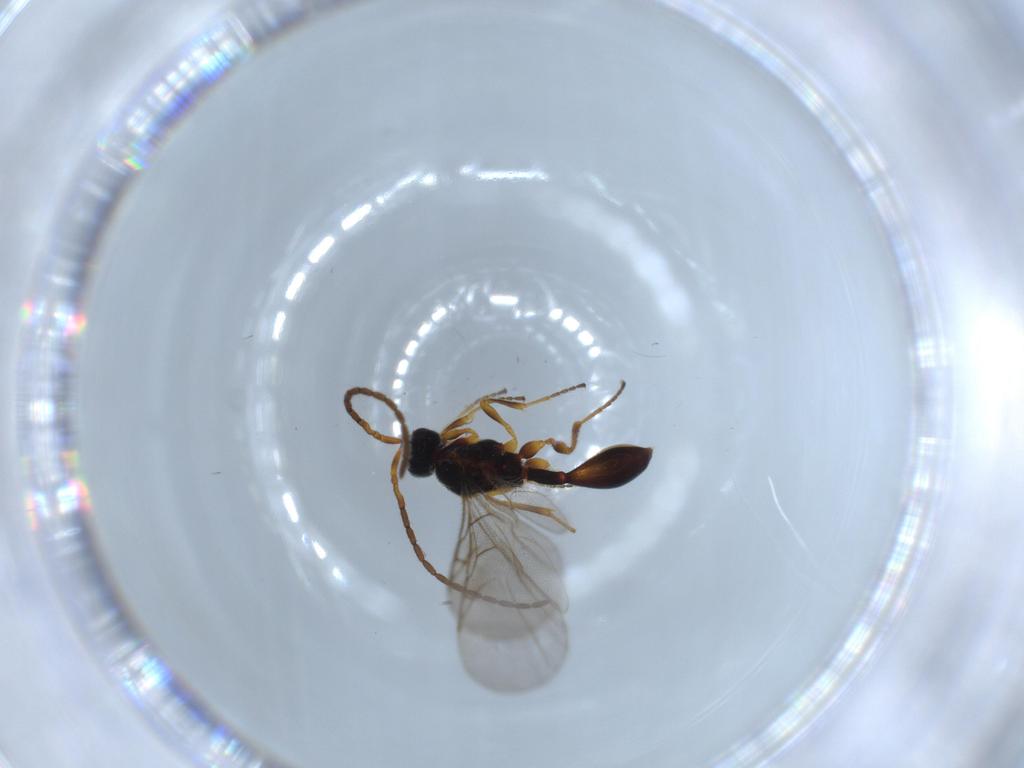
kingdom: Animalia
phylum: Arthropoda
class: Insecta
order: Hymenoptera
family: Diapriidae
